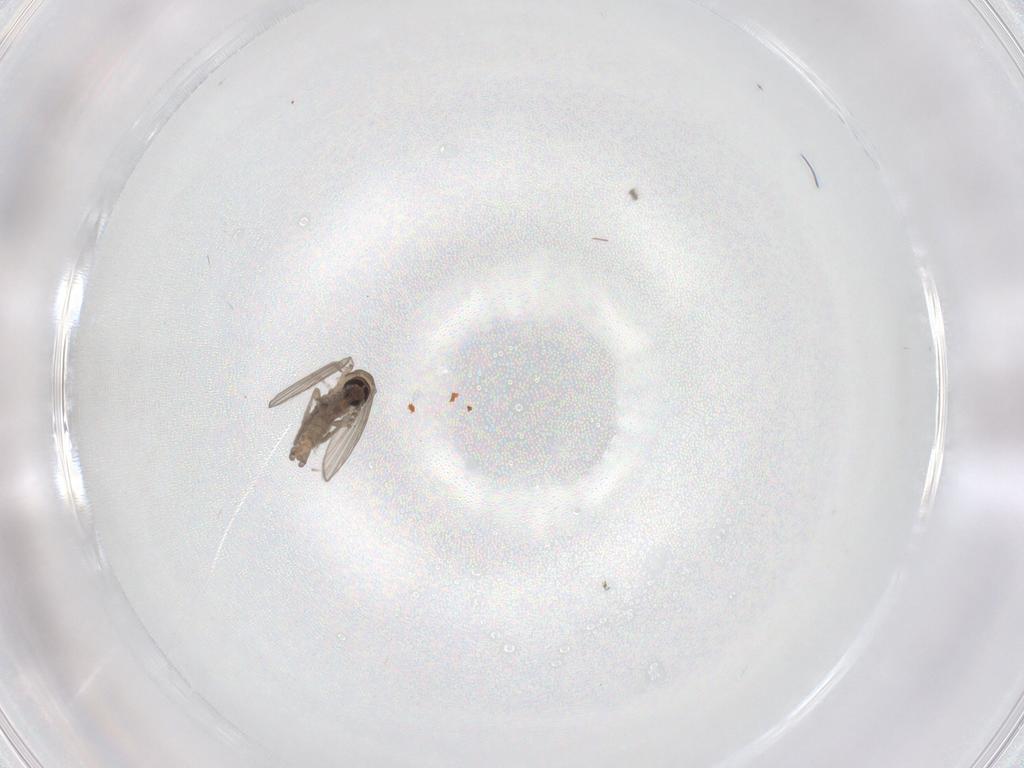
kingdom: Animalia
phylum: Arthropoda
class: Insecta
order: Diptera
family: Psychodidae
